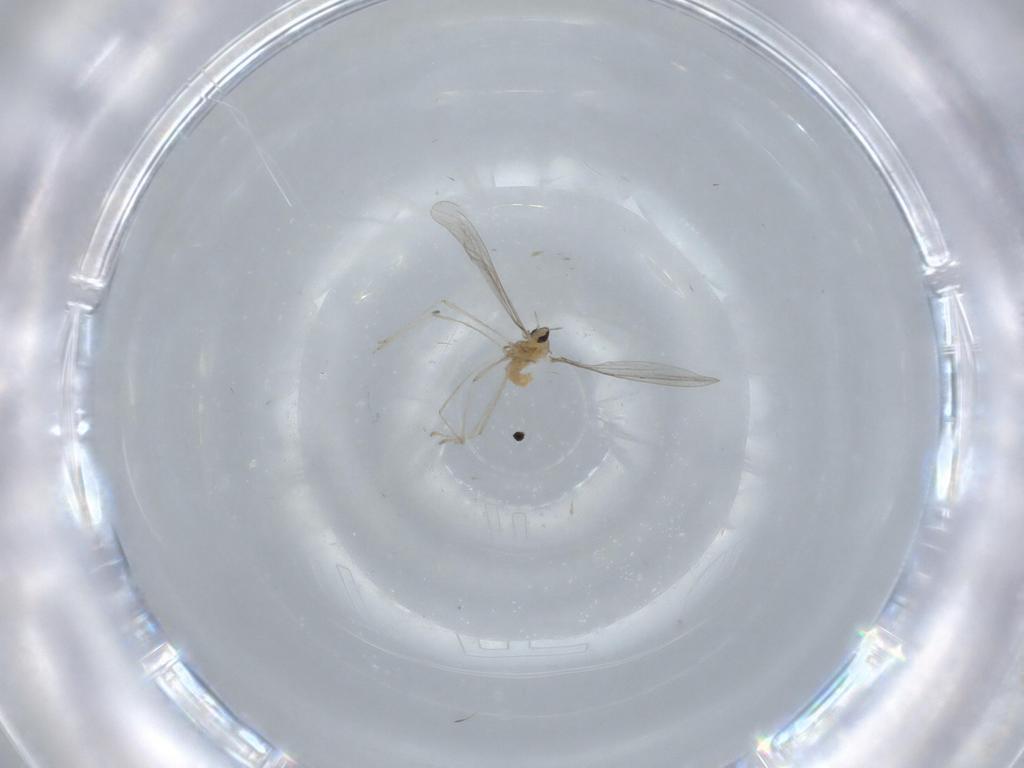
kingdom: Animalia
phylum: Arthropoda
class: Insecta
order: Diptera
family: Cecidomyiidae
